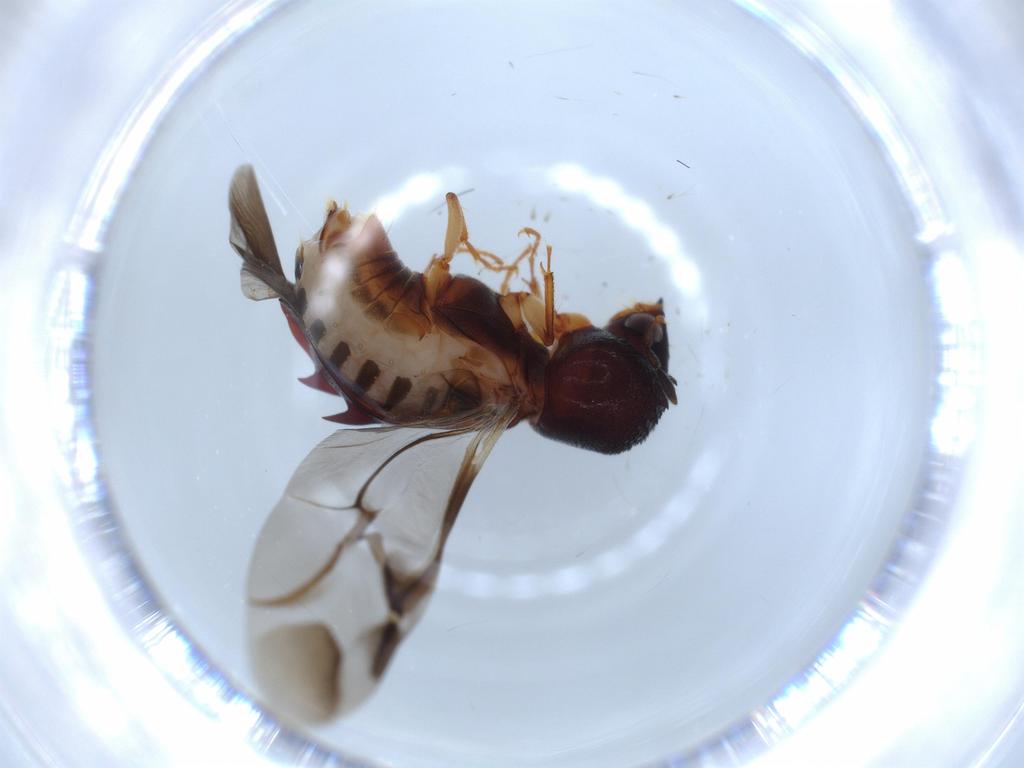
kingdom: Animalia
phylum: Arthropoda
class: Insecta
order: Coleoptera
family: Bostrichidae
